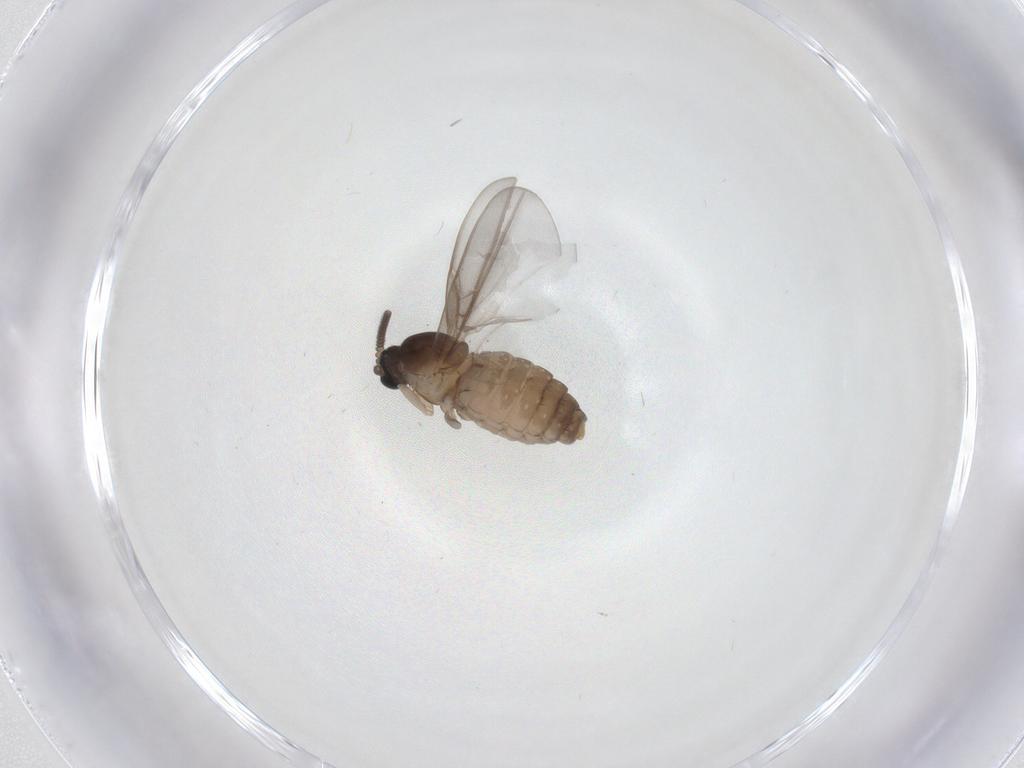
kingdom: Animalia
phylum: Arthropoda
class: Insecta
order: Diptera
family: Cecidomyiidae
